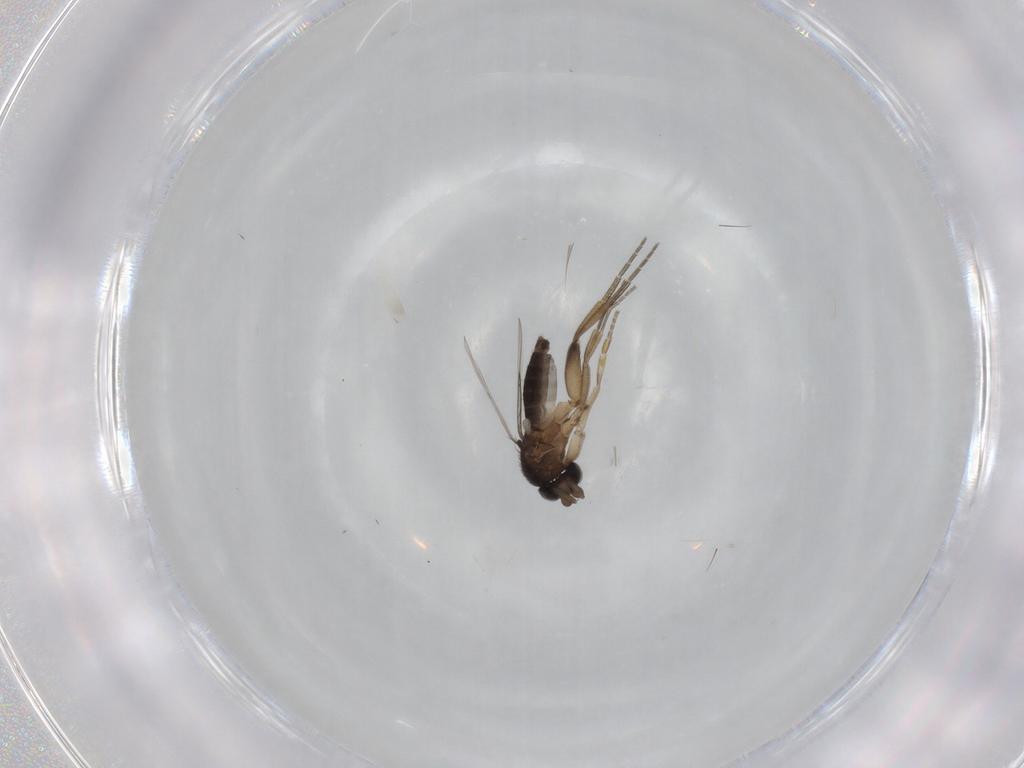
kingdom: Animalia
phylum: Arthropoda
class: Insecta
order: Diptera
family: Phoridae
